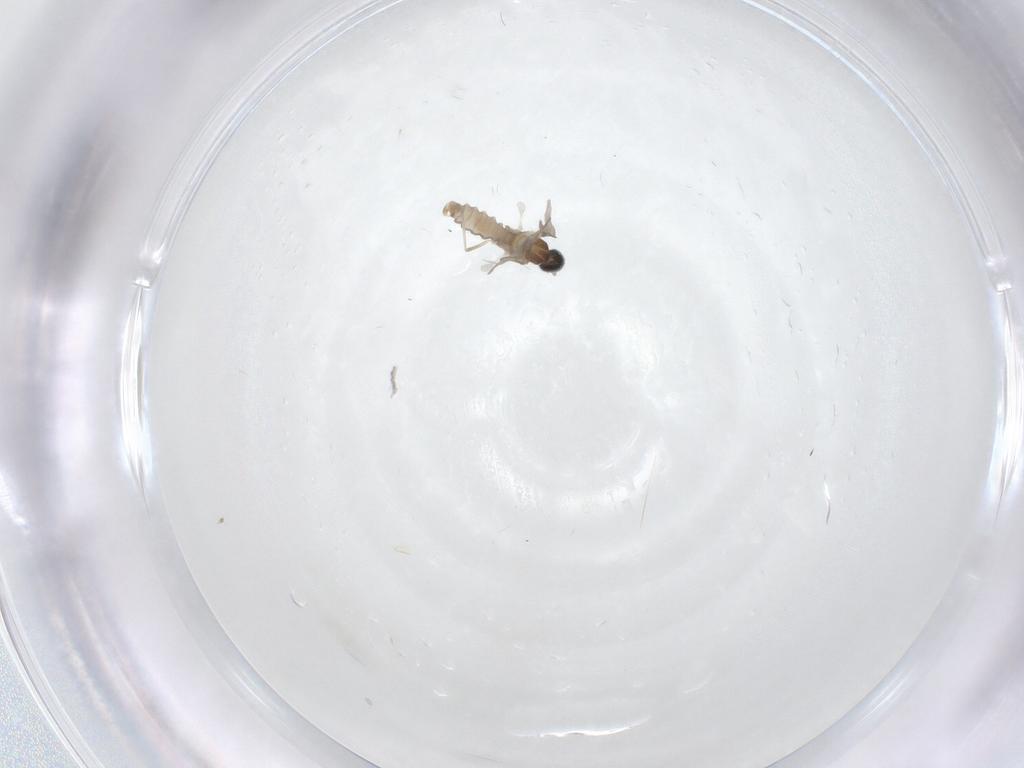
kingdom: Animalia
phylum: Arthropoda
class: Insecta
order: Diptera
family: Cecidomyiidae
